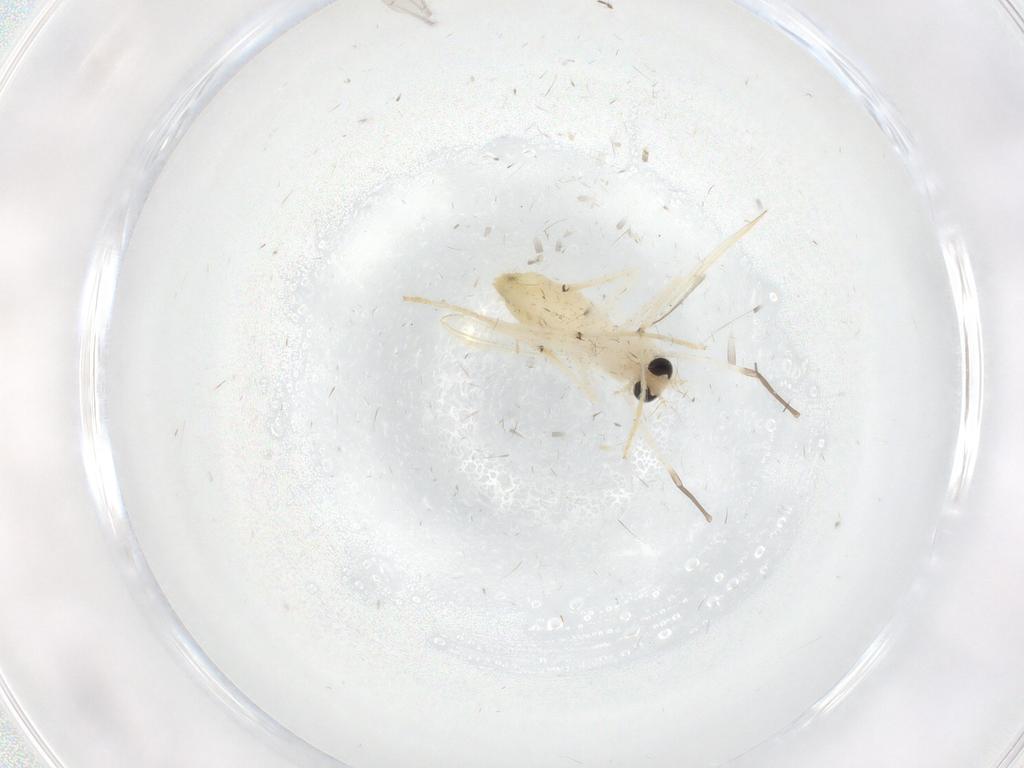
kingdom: Animalia
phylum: Arthropoda
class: Insecta
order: Diptera
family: Chironomidae
